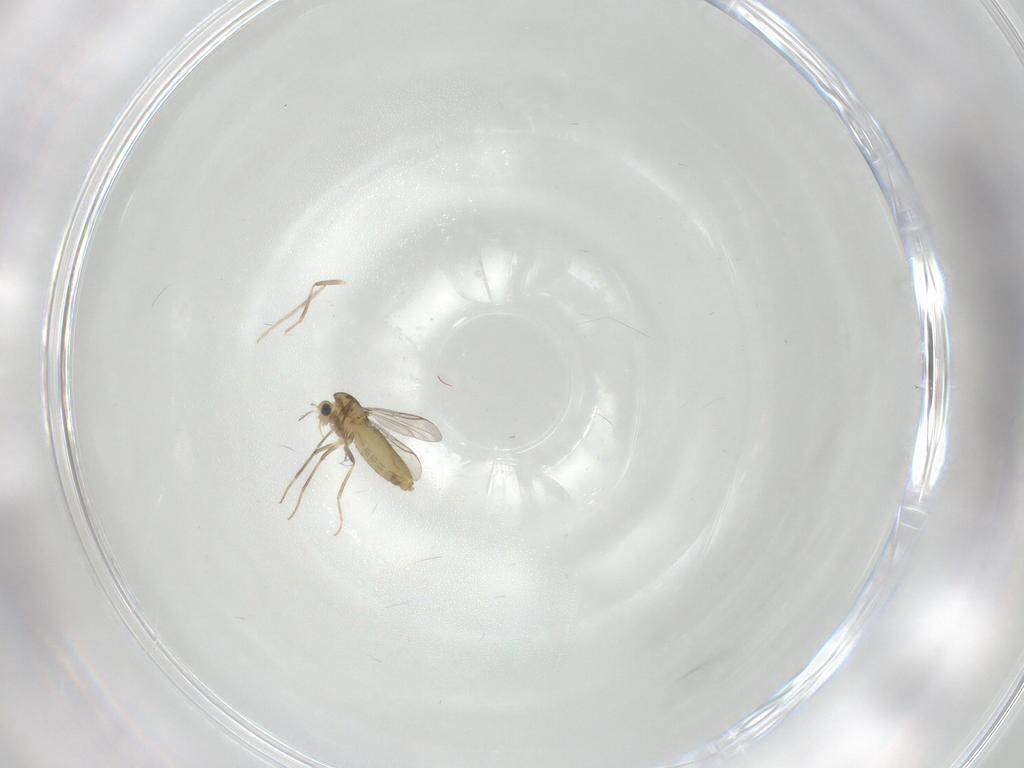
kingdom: Animalia
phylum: Arthropoda
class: Insecta
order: Diptera
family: Chironomidae
